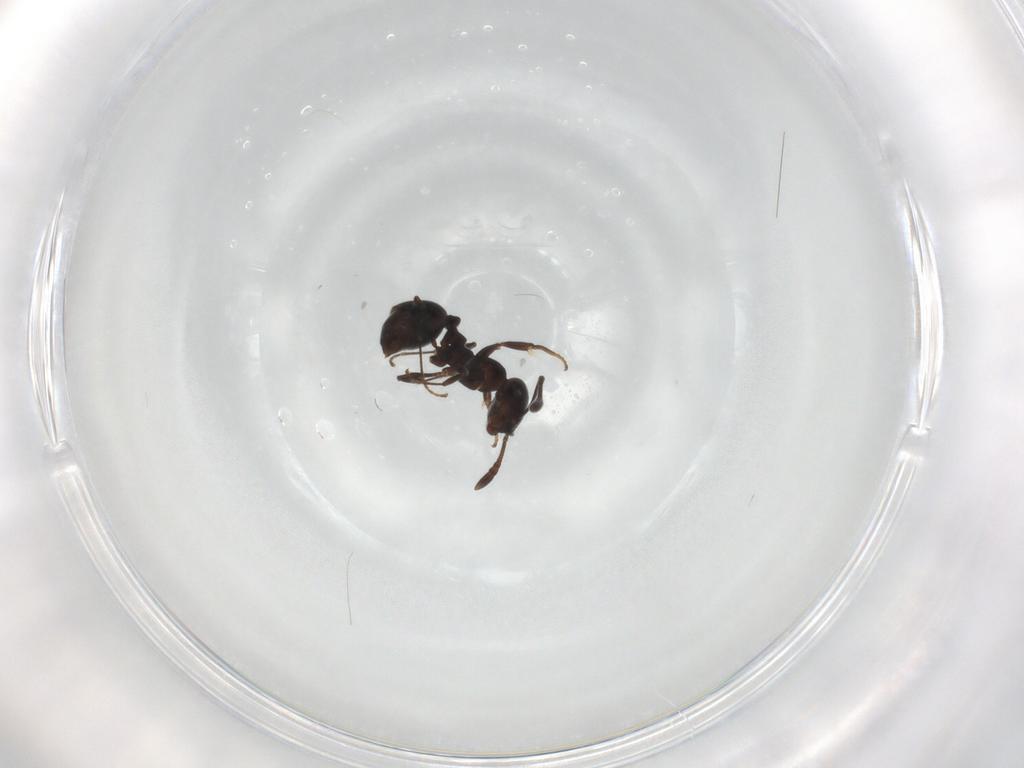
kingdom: Animalia
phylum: Arthropoda
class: Insecta
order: Hymenoptera
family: Formicidae
